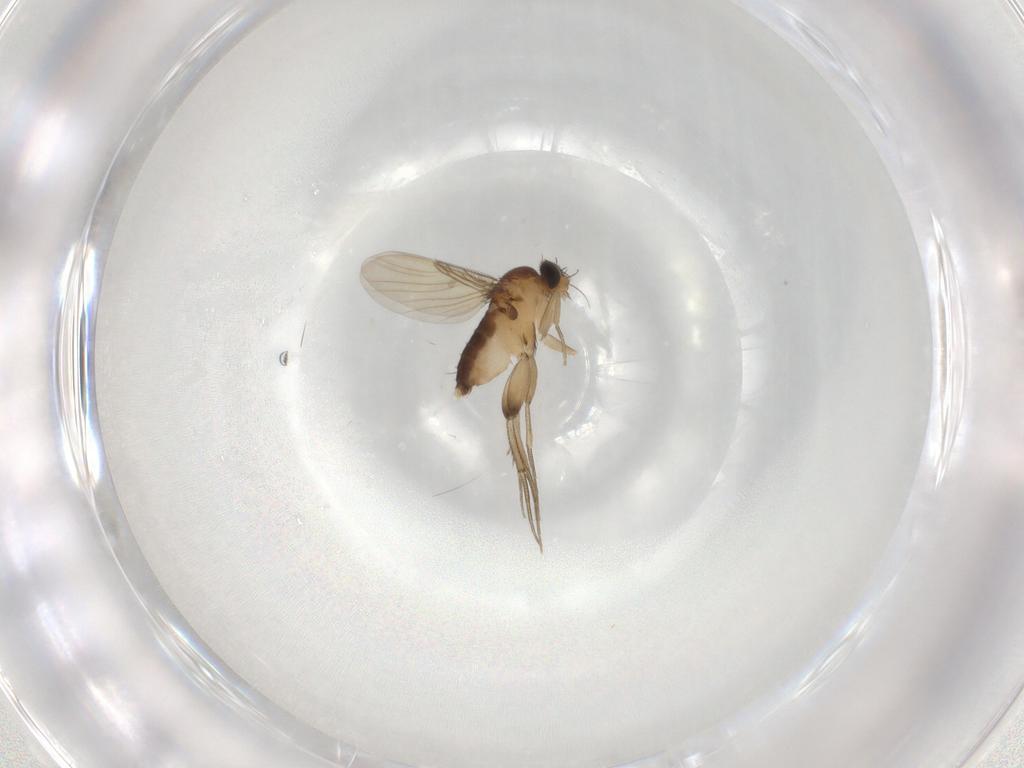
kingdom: Animalia
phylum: Arthropoda
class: Insecta
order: Diptera
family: Phoridae
